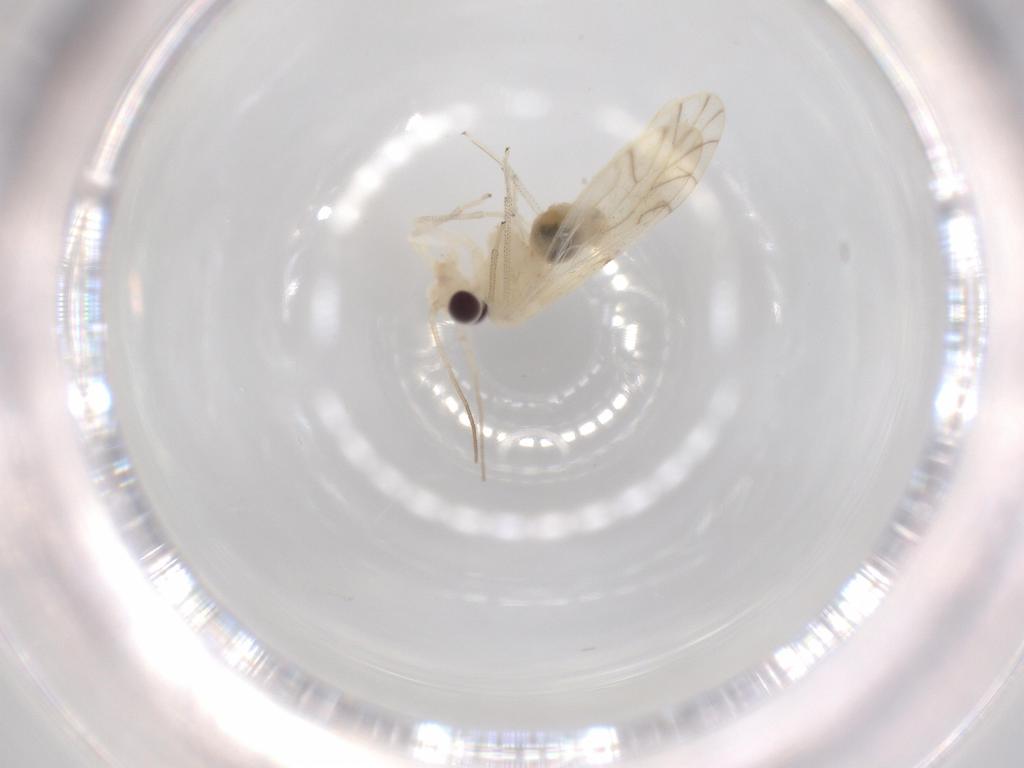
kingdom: Animalia
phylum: Arthropoda
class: Insecta
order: Psocodea
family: Caeciliusidae
